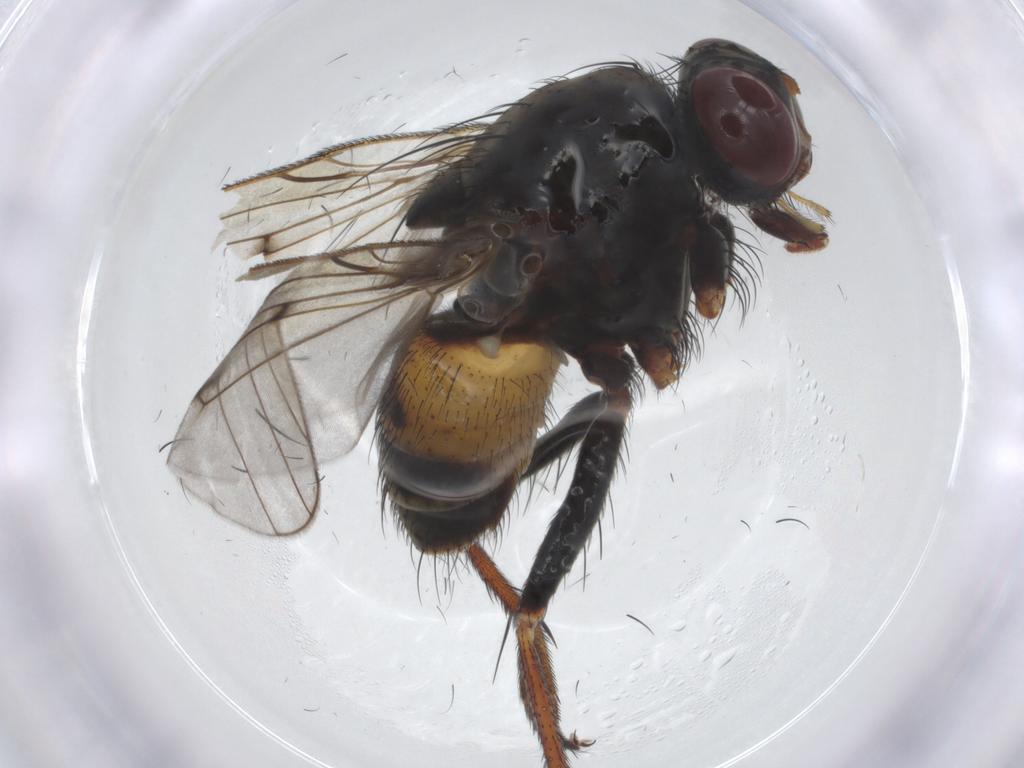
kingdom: Animalia
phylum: Arthropoda
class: Insecta
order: Diptera
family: Muscidae
